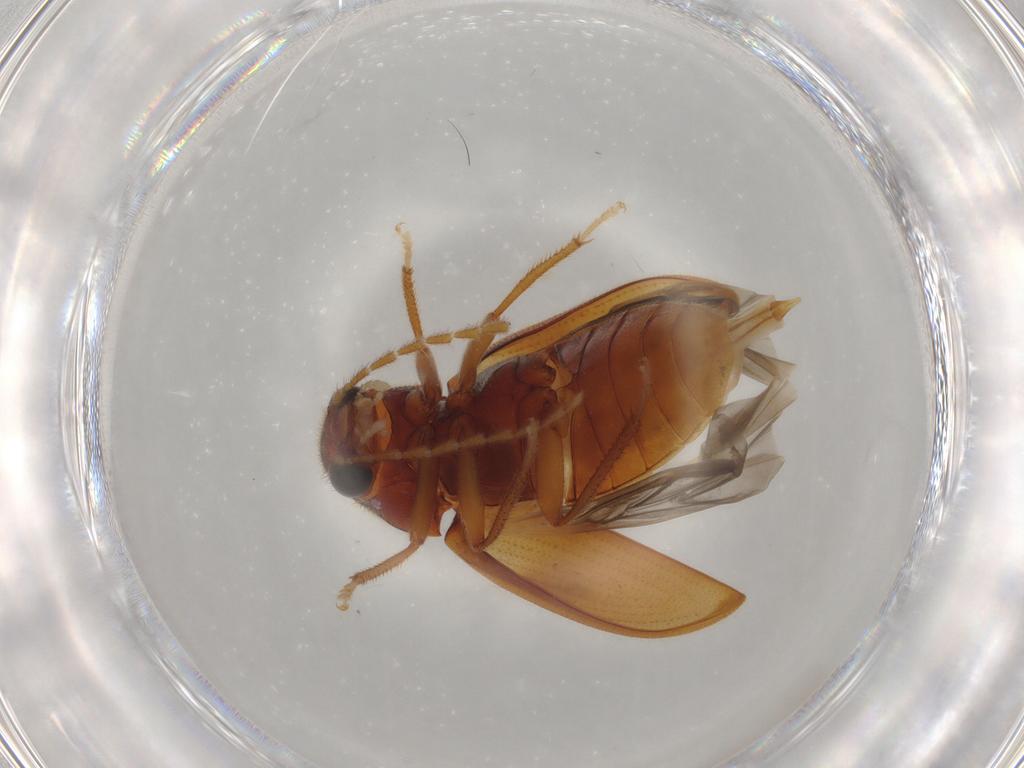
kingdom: Animalia
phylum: Arthropoda
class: Insecta
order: Coleoptera
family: Ptilodactylidae
